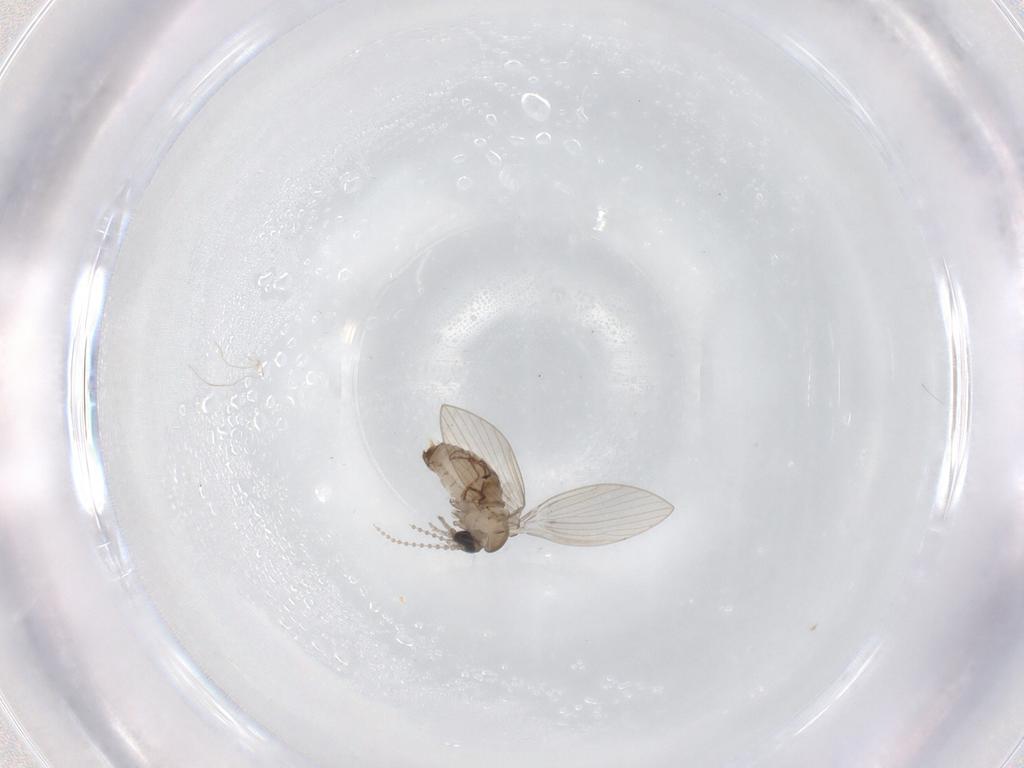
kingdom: Animalia
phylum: Arthropoda
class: Insecta
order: Diptera
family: Psychodidae
